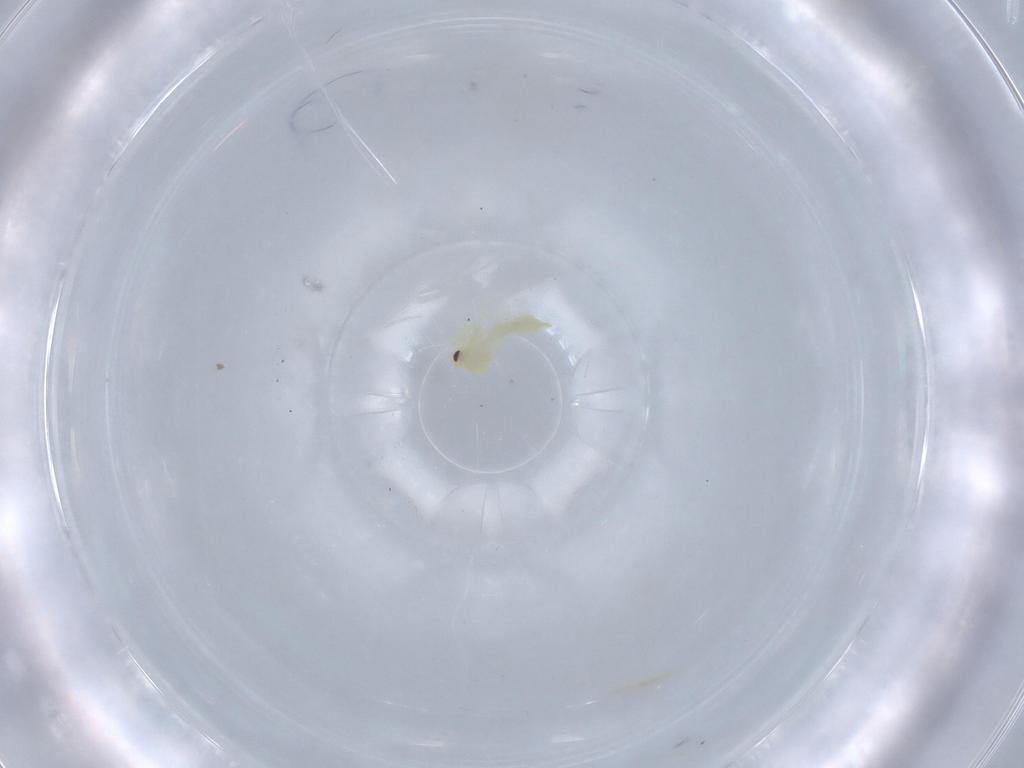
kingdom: Animalia
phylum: Arthropoda
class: Insecta
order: Hemiptera
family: Aleyrodidae
